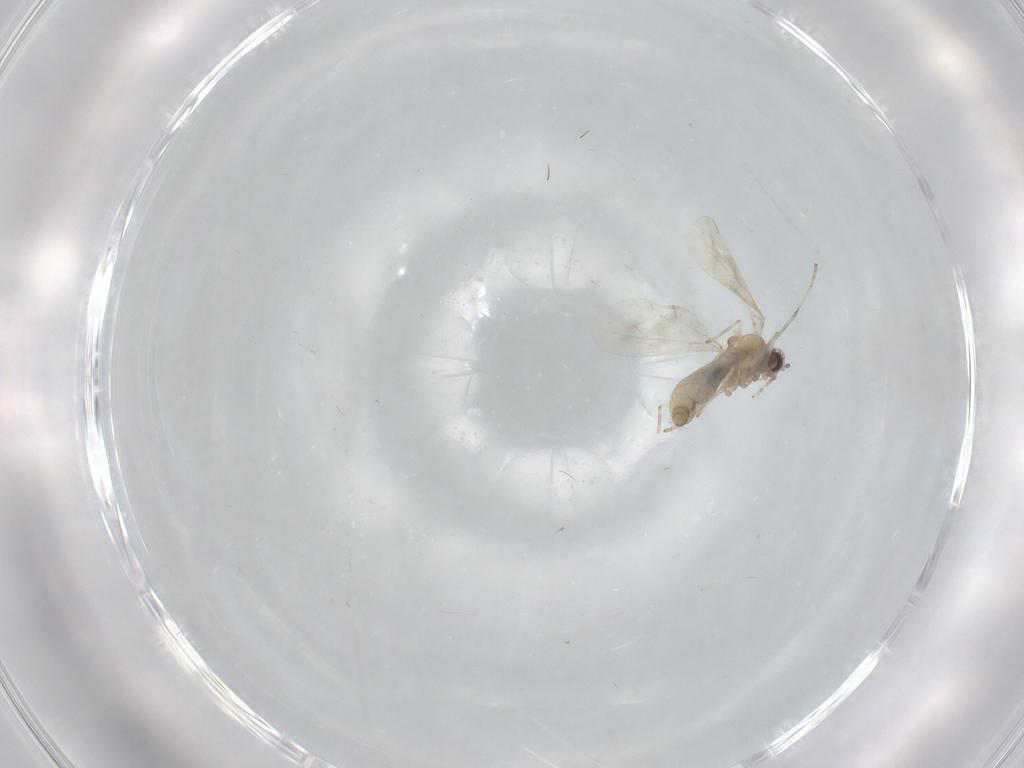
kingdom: Animalia
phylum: Arthropoda
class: Insecta
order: Diptera
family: Cecidomyiidae
